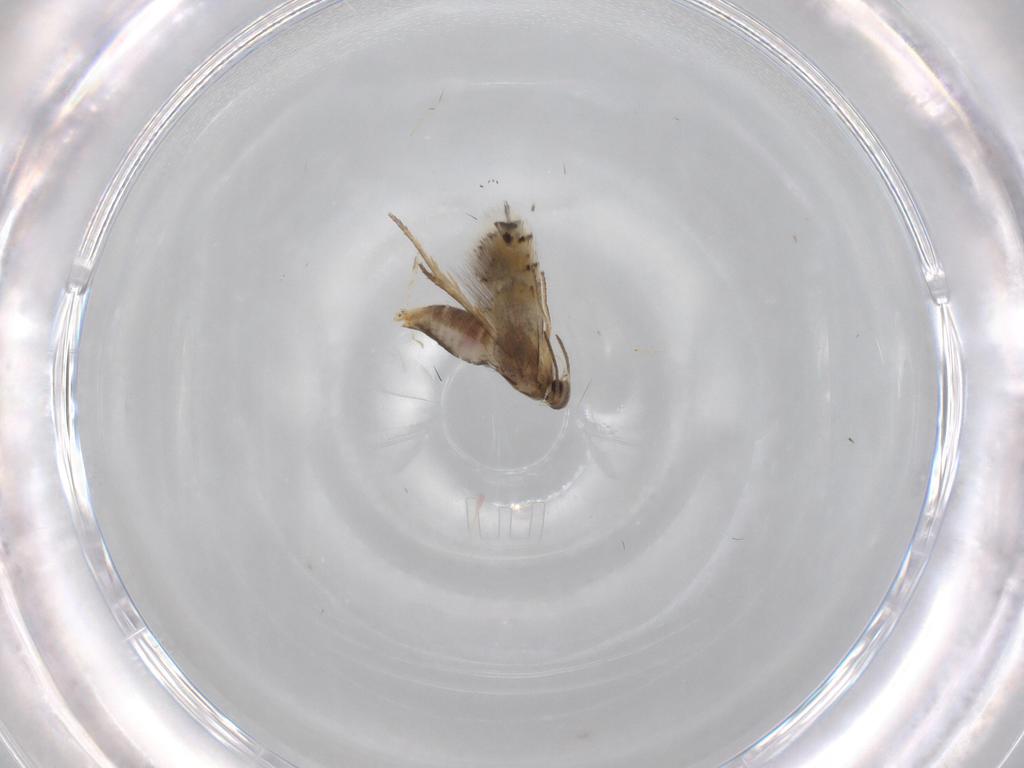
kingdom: Animalia
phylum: Arthropoda
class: Insecta
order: Lepidoptera
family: Heliozelidae
